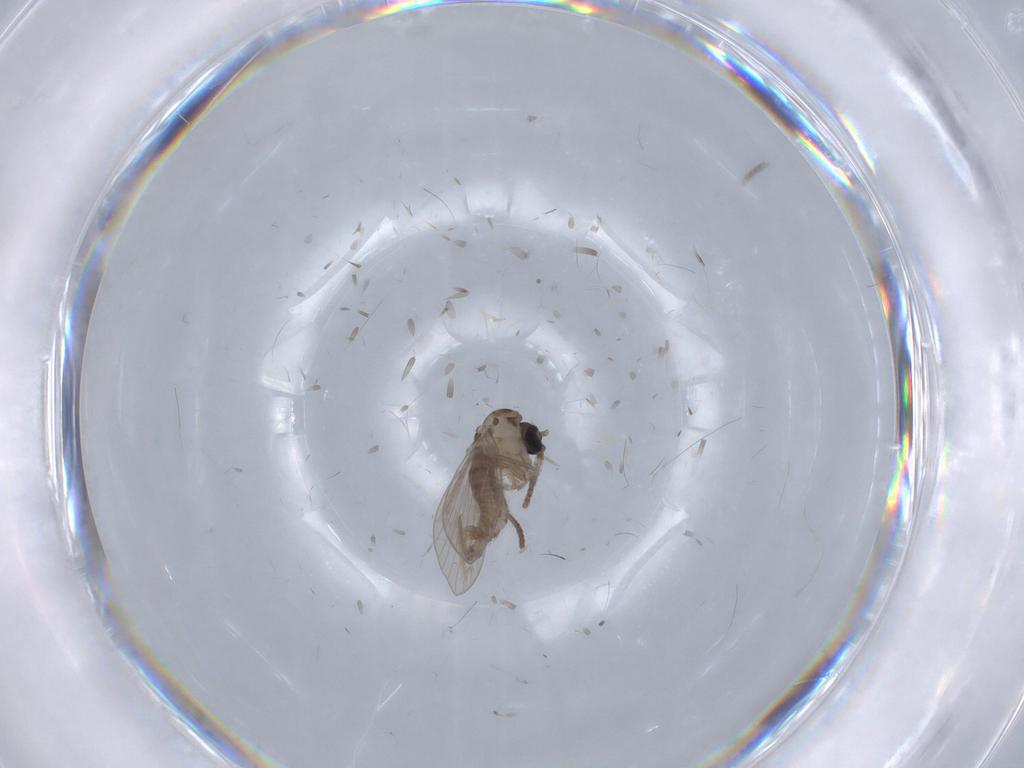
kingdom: Animalia
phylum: Arthropoda
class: Insecta
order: Diptera
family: Psychodidae
